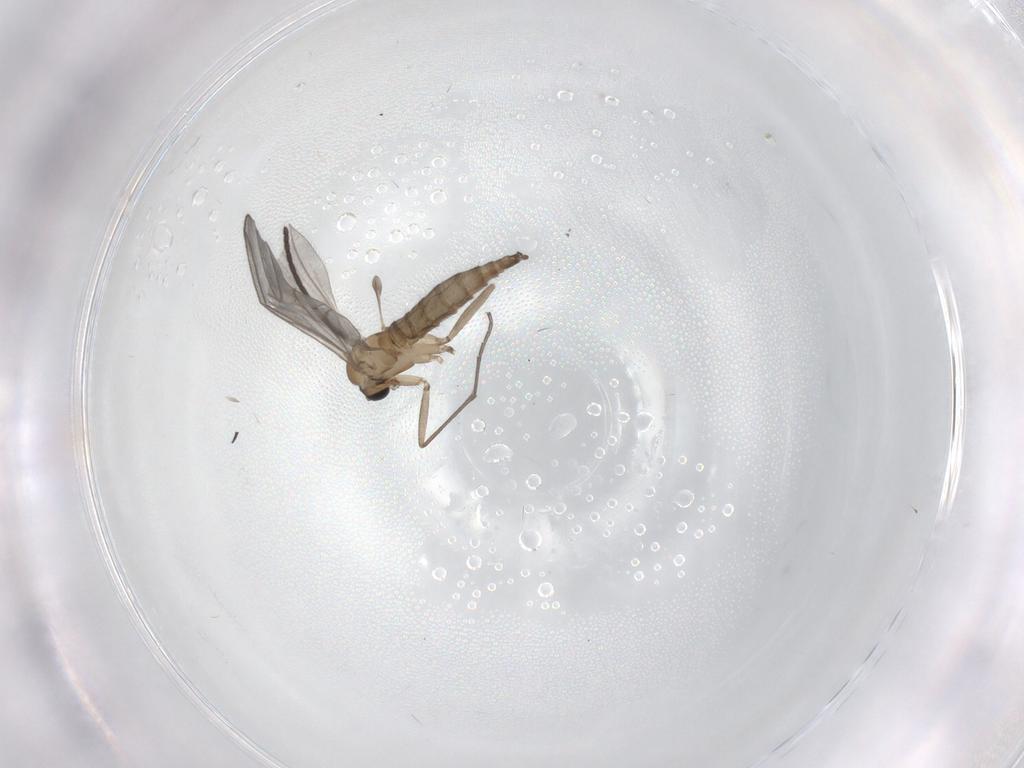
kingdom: Animalia
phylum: Arthropoda
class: Insecta
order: Diptera
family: Sciaridae
